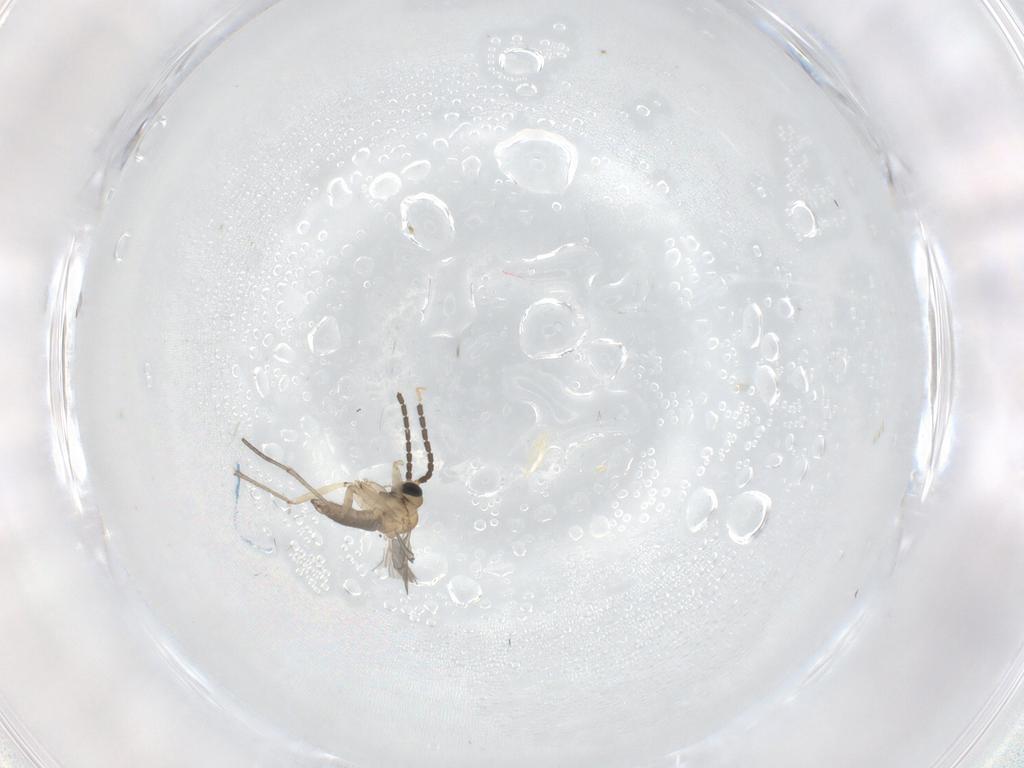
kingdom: Animalia
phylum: Arthropoda
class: Insecta
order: Diptera
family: Sciaridae
